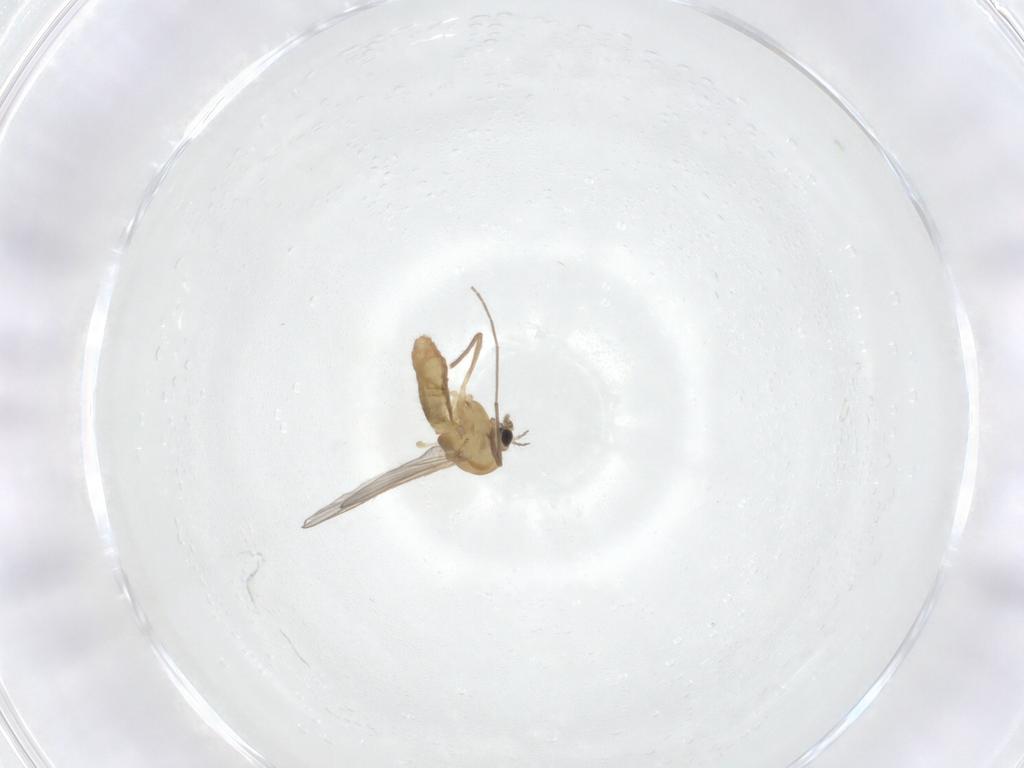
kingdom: Animalia
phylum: Arthropoda
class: Insecta
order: Diptera
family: Chironomidae
